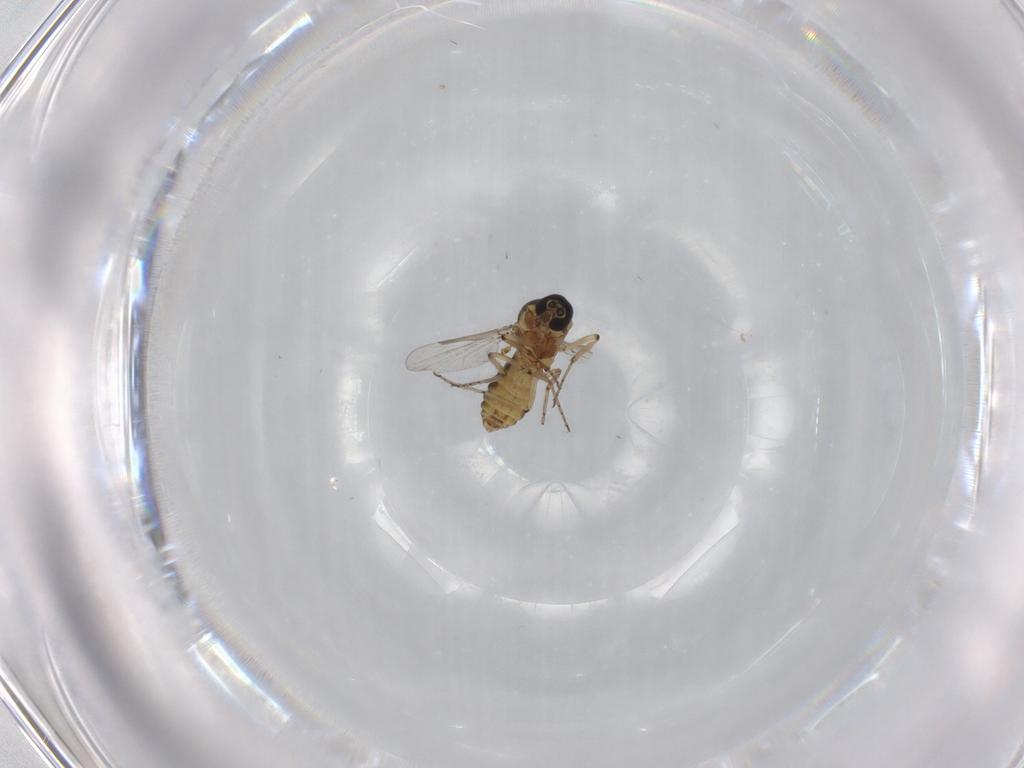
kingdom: Animalia
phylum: Arthropoda
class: Insecta
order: Diptera
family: Ceratopogonidae
